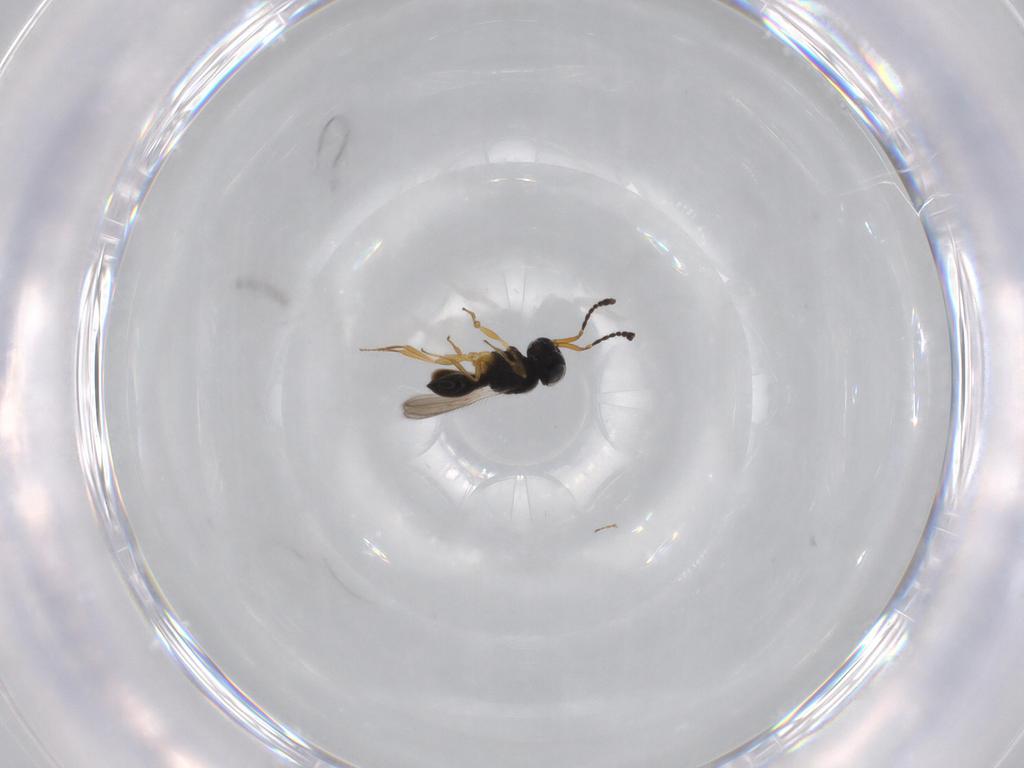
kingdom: Animalia
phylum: Arthropoda
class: Insecta
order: Hymenoptera
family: Scelionidae
